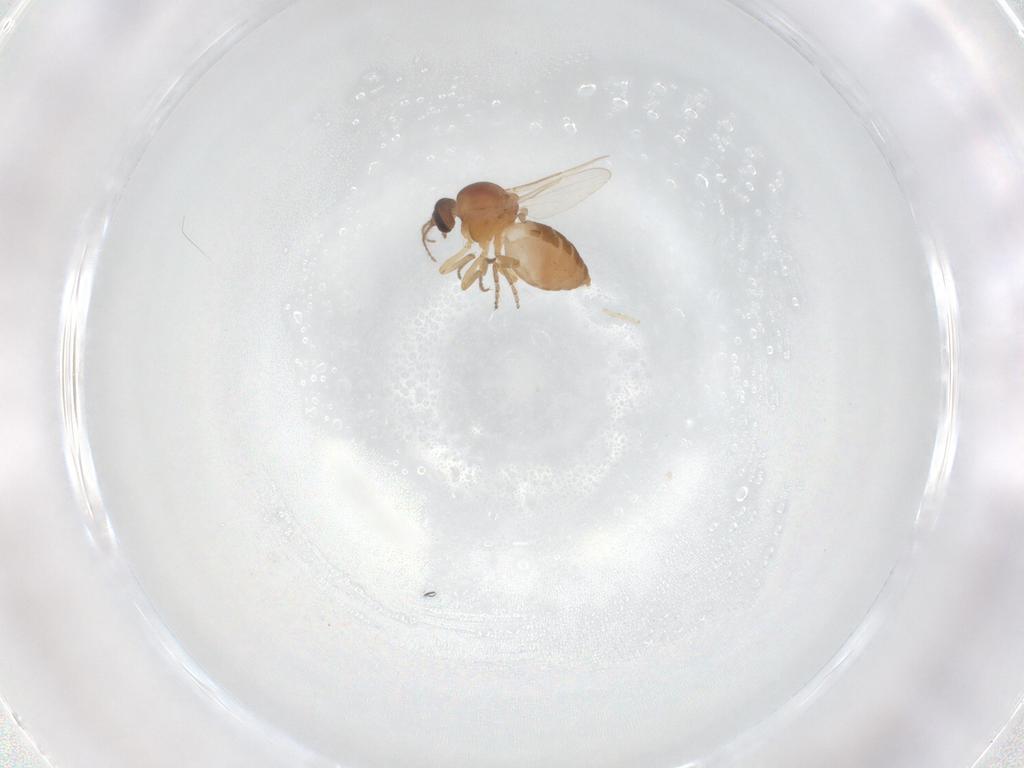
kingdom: Animalia
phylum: Arthropoda
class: Insecta
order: Diptera
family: Ceratopogonidae
